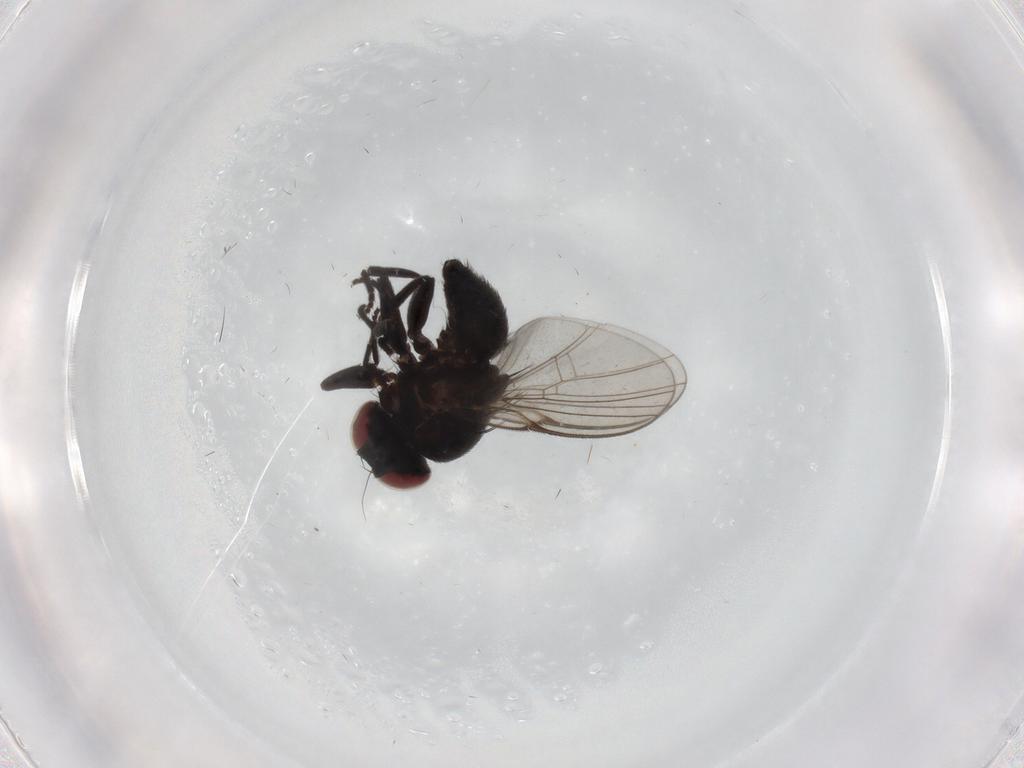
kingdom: Animalia
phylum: Arthropoda
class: Insecta
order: Diptera
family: Agromyzidae
